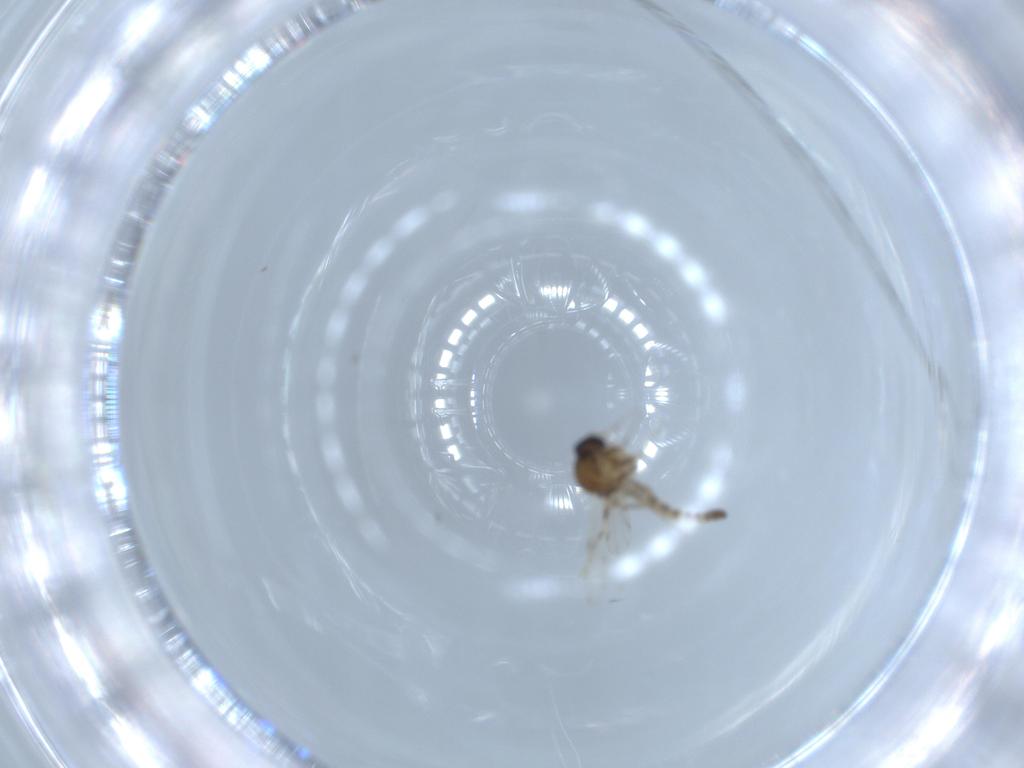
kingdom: Animalia
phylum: Arthropoda
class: Insecta
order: Diptera
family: Ceratopogonidae
